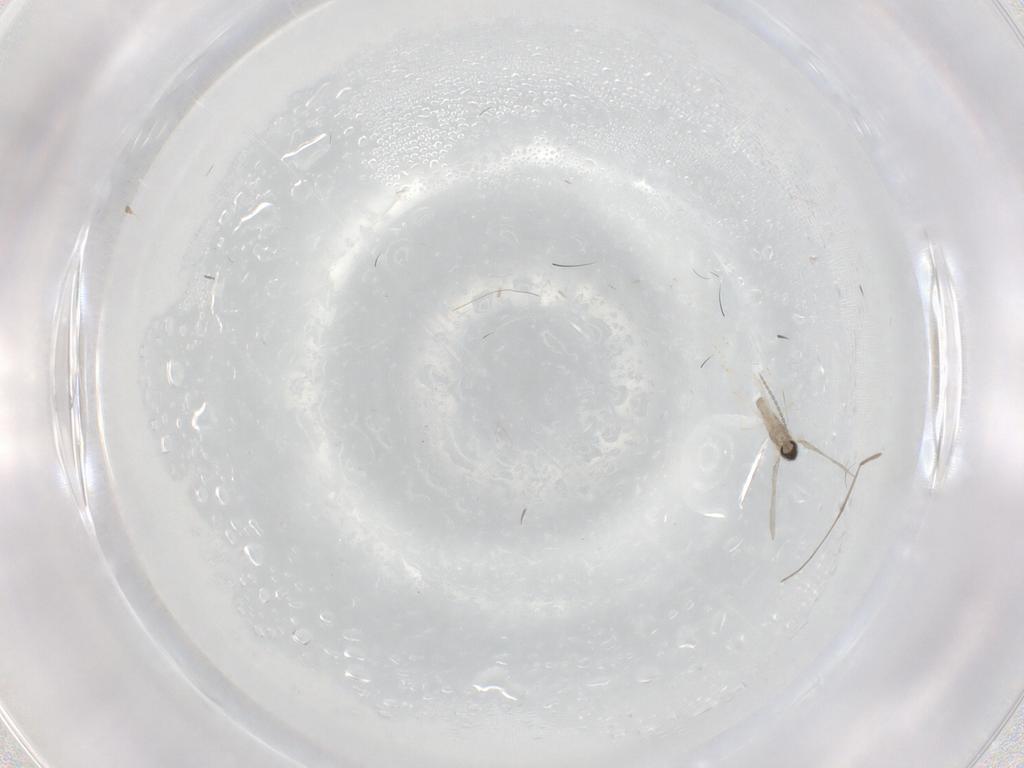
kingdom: Animalia
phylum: Arthropoda
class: Insecta
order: Diptera
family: Cecidomyiidae
